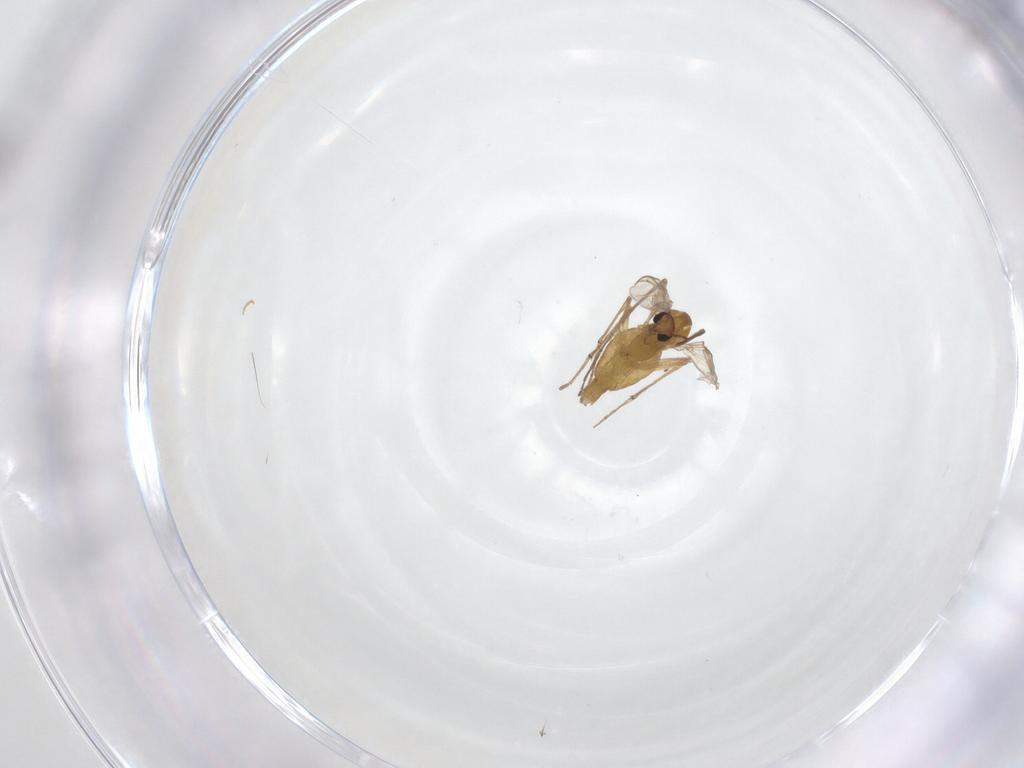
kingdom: Animalia
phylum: Arthropoda
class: Insecta
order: Diptera
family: Chironomidae
